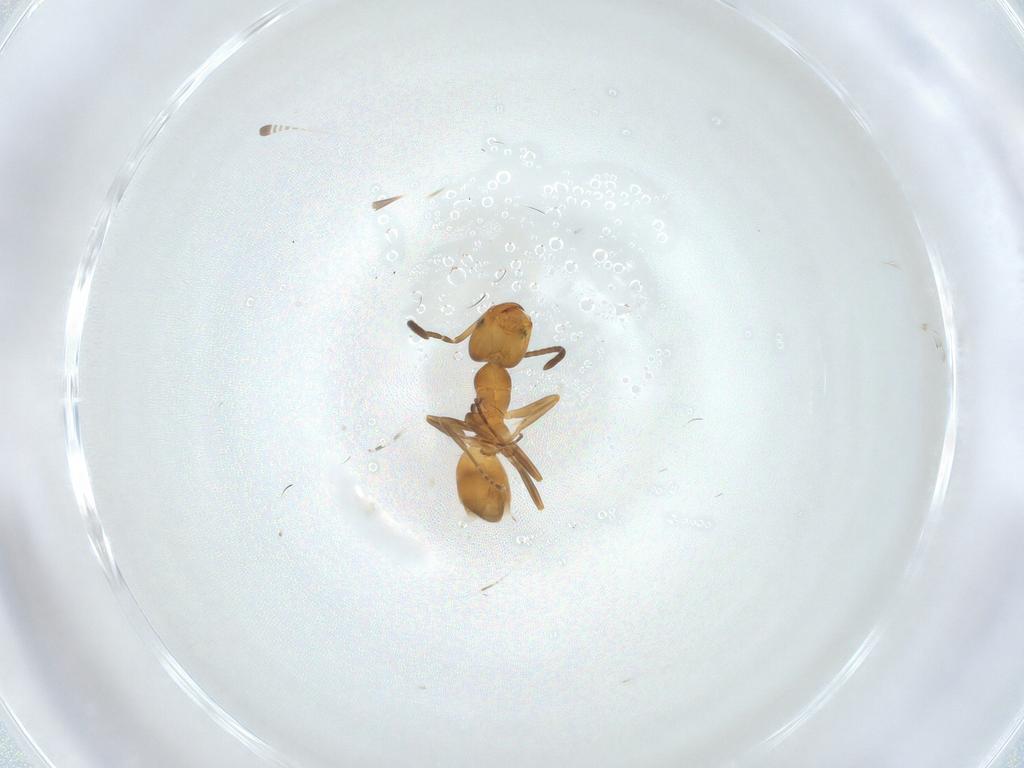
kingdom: Animalia
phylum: Arthropoda
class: Insecta
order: Hymenoptera
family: Formicidae
